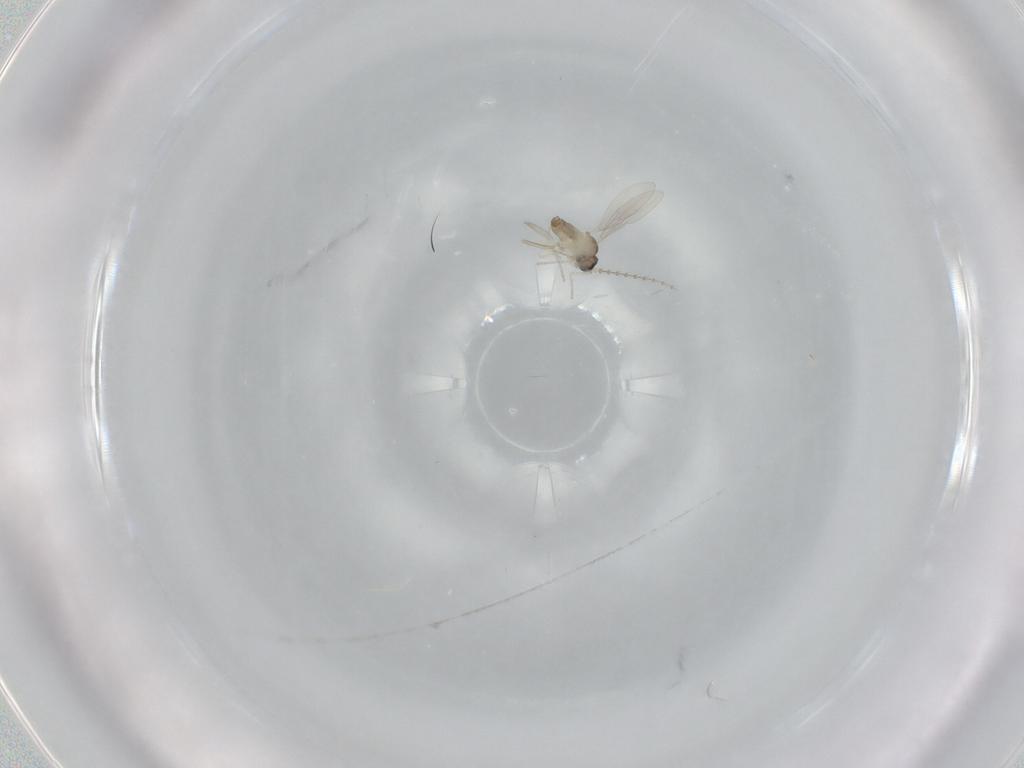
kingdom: Animalia
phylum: Arthropoda
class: Insecta
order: Diptera
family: Cecidomyiidae
